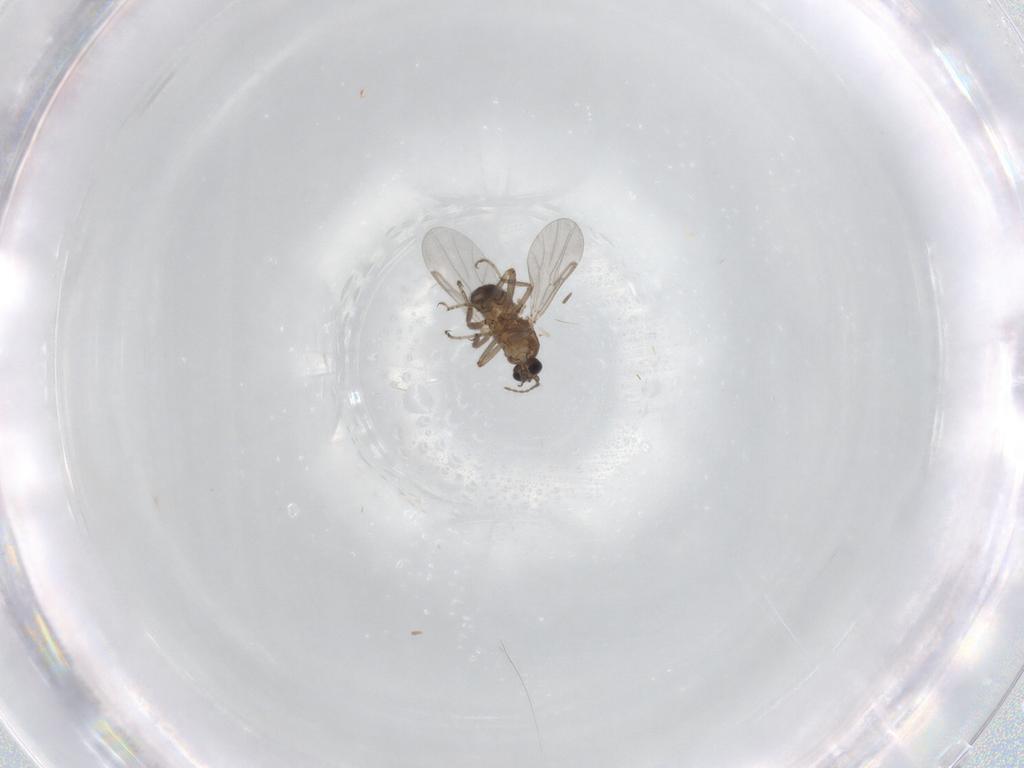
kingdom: Animalia
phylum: Arthropoda
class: Insecta
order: Diptera
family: Ceratopogonidae
